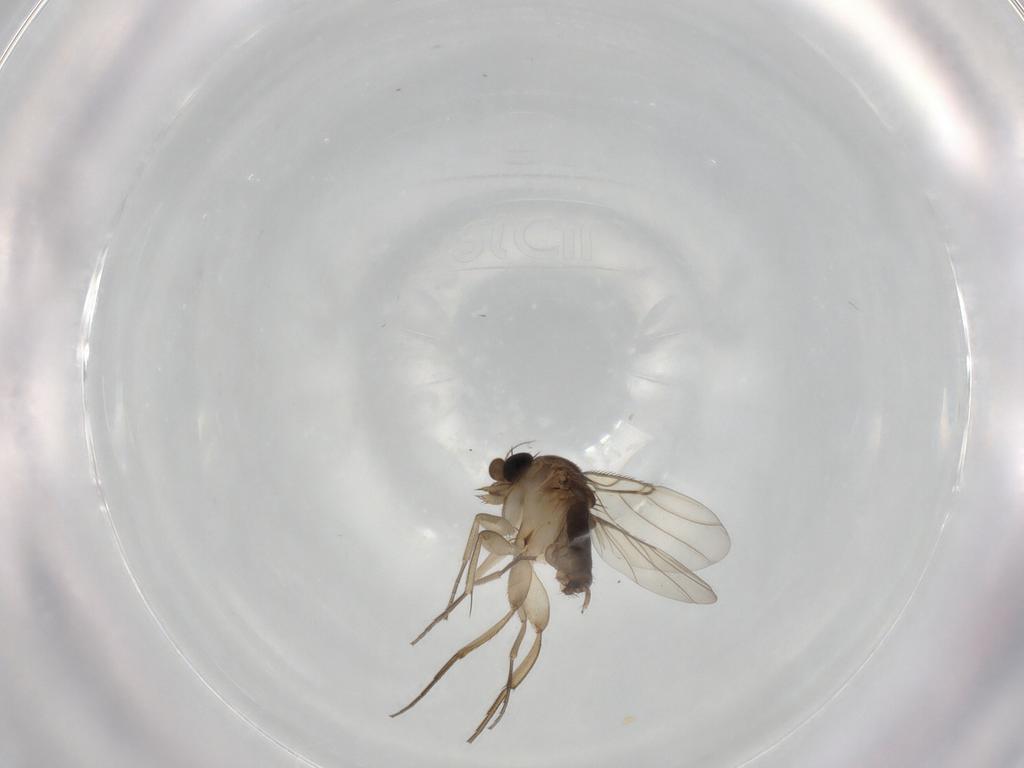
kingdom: Animalia
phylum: Arthropoda
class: Insecta
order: Diptera
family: Phoridae
